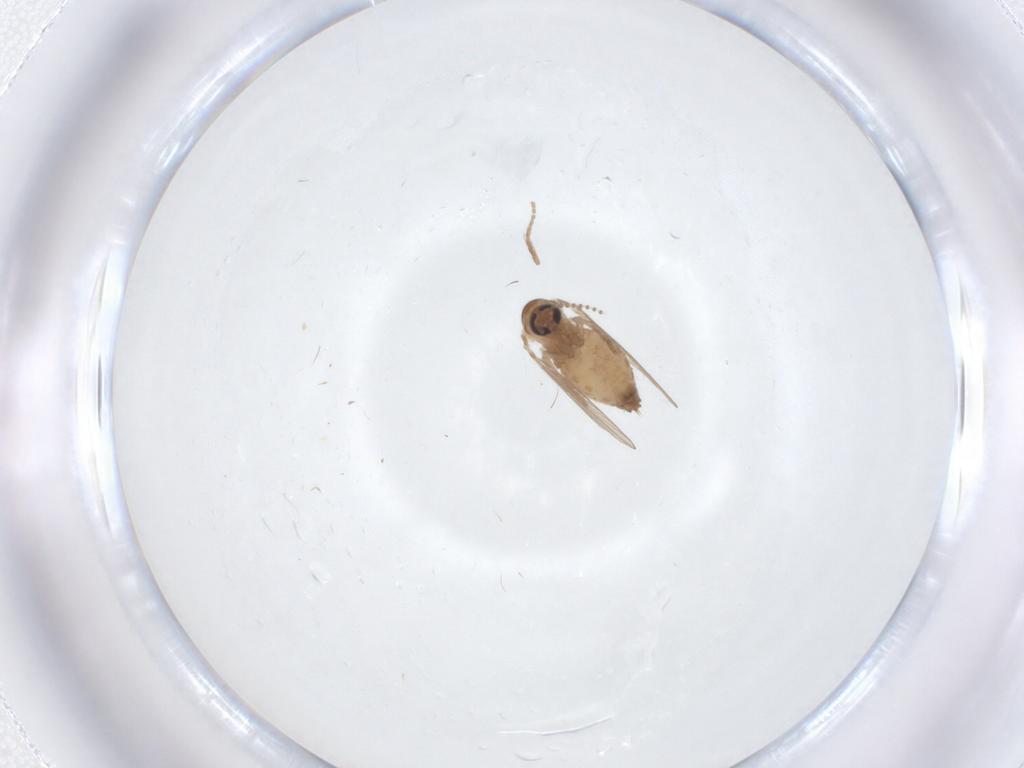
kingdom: Animalia
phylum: Arthropoda
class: Insecta
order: Diptera
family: Psychodidae
